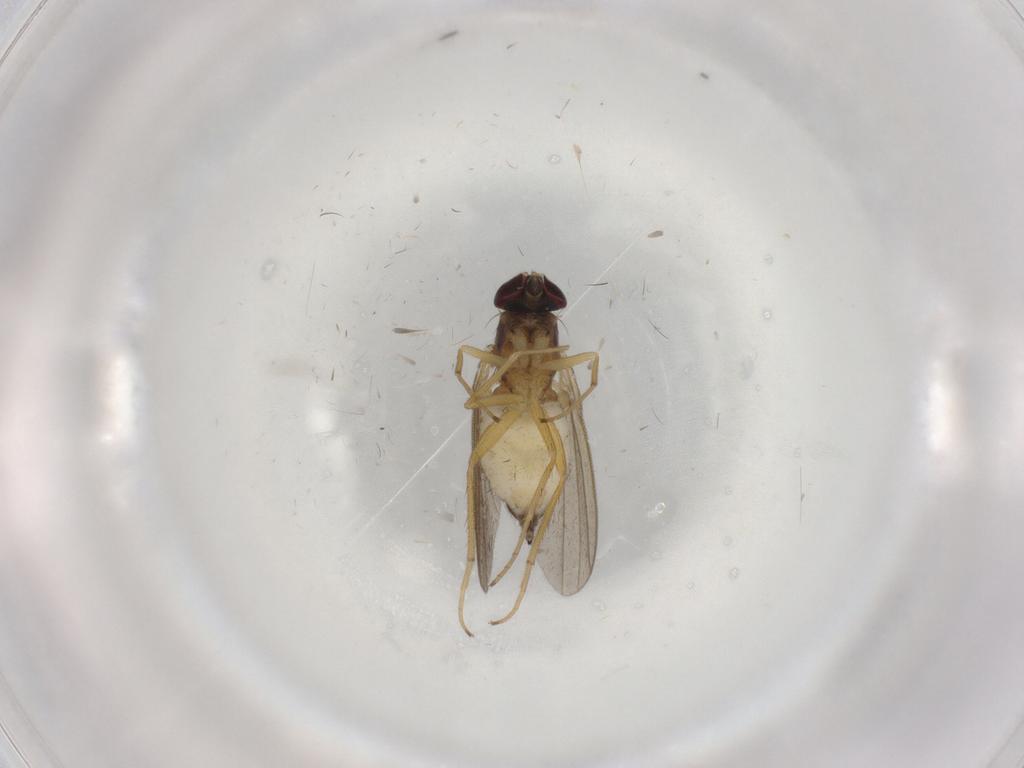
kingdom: Animalia
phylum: Arthropoda
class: Insecta
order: Diptera
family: Dolichopodidae
